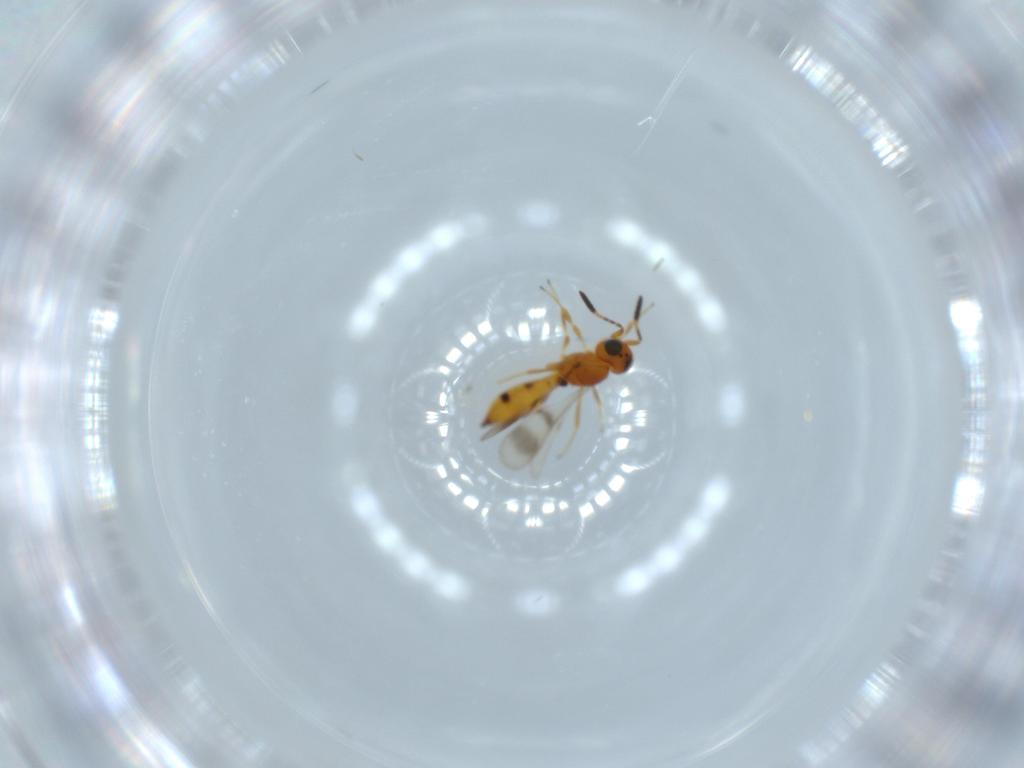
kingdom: Animalia
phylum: Arthropoda
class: Insecta
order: Hymenoptera
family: Scelionidae
